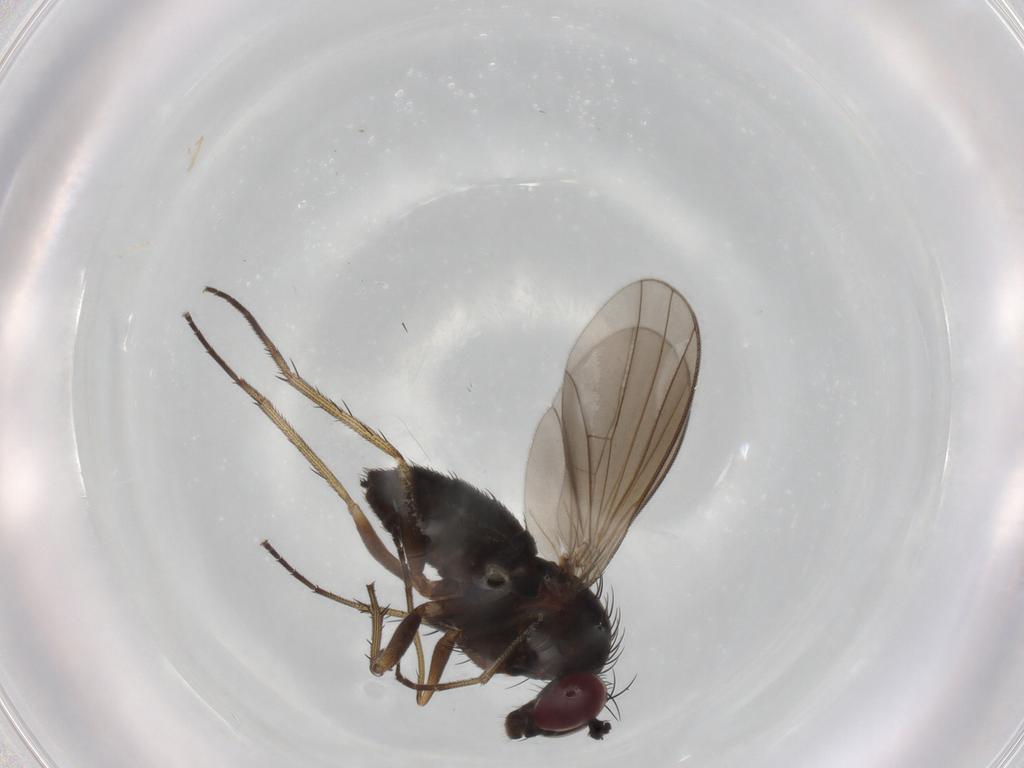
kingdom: Animalia
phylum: Arthropoda
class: Insecta
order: Diptera
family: Dolichopodidae
